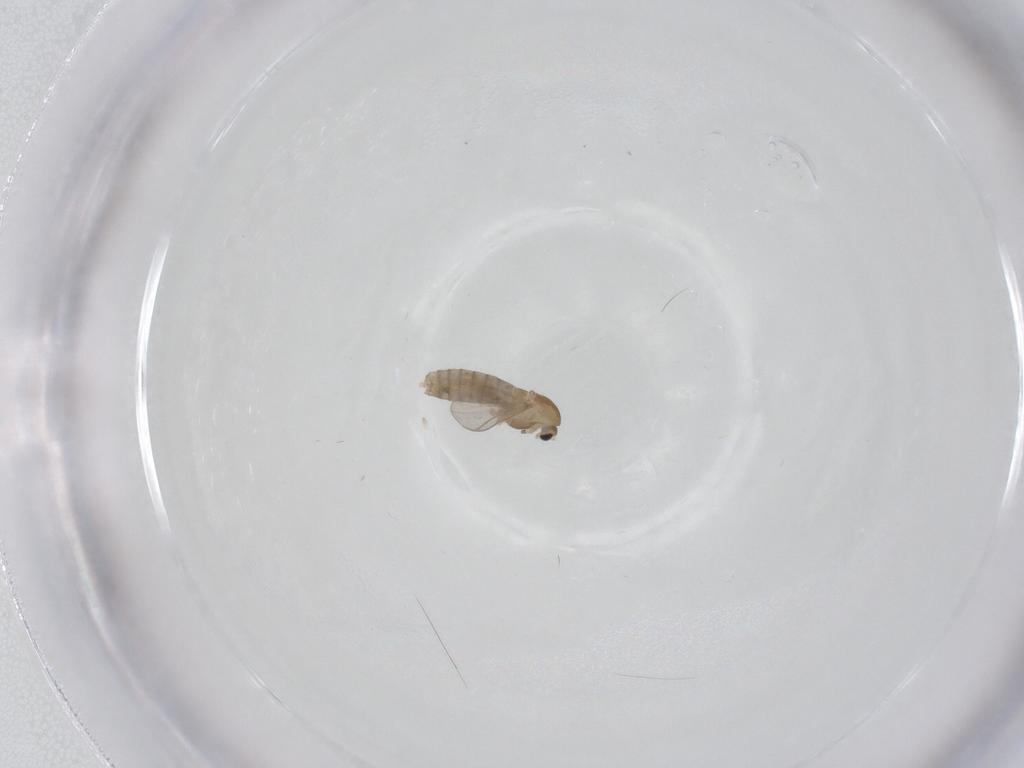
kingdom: Animalia
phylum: Arthropoda
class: Insecta
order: Diptera
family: Chironomidae
